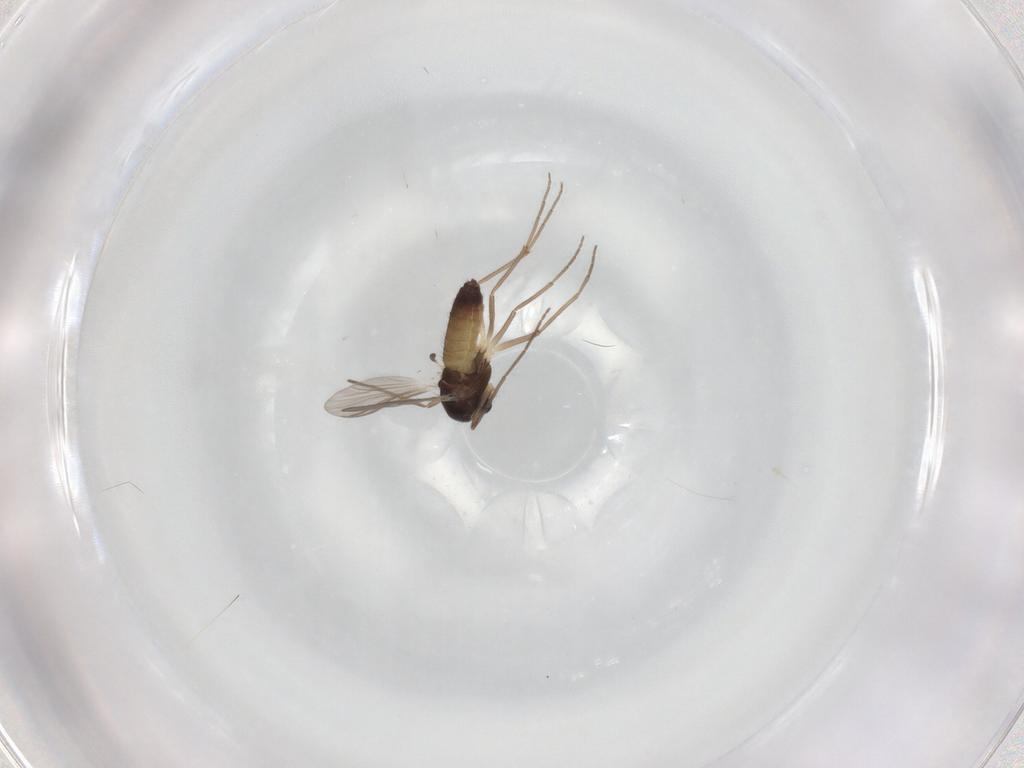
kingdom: Animalia
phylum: Arthropoda
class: Insecta
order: Diptera
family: Chironomidae
